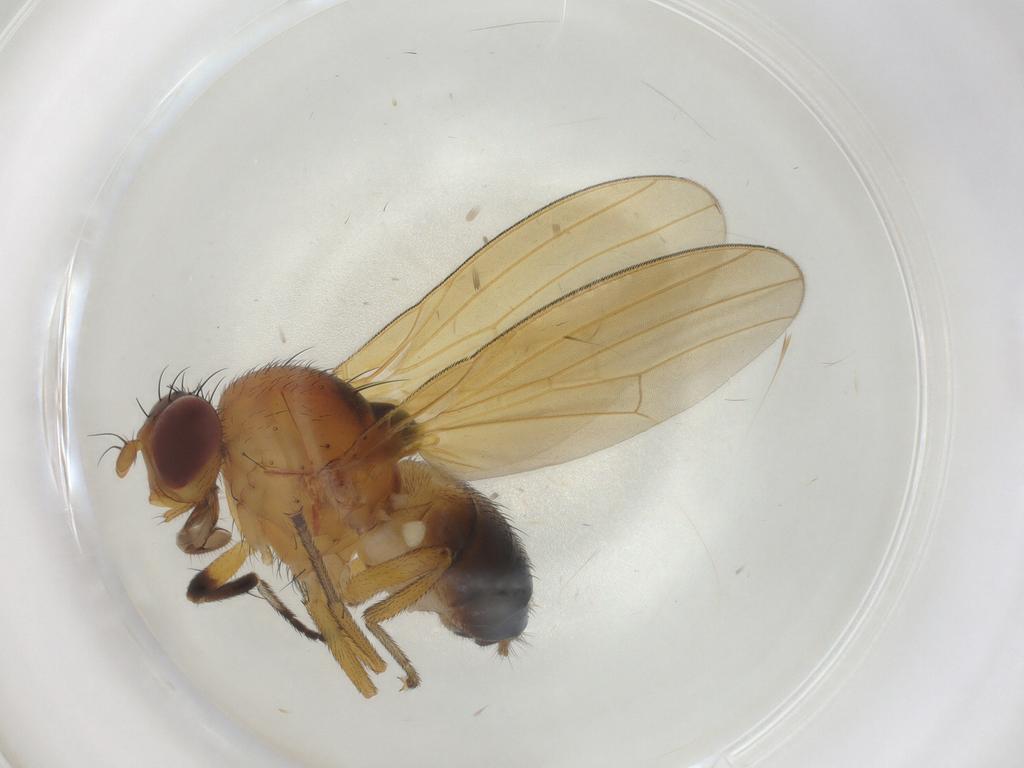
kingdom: Animalia
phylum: Arthropoda
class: Insecta
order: Diptera
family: Muscidae
